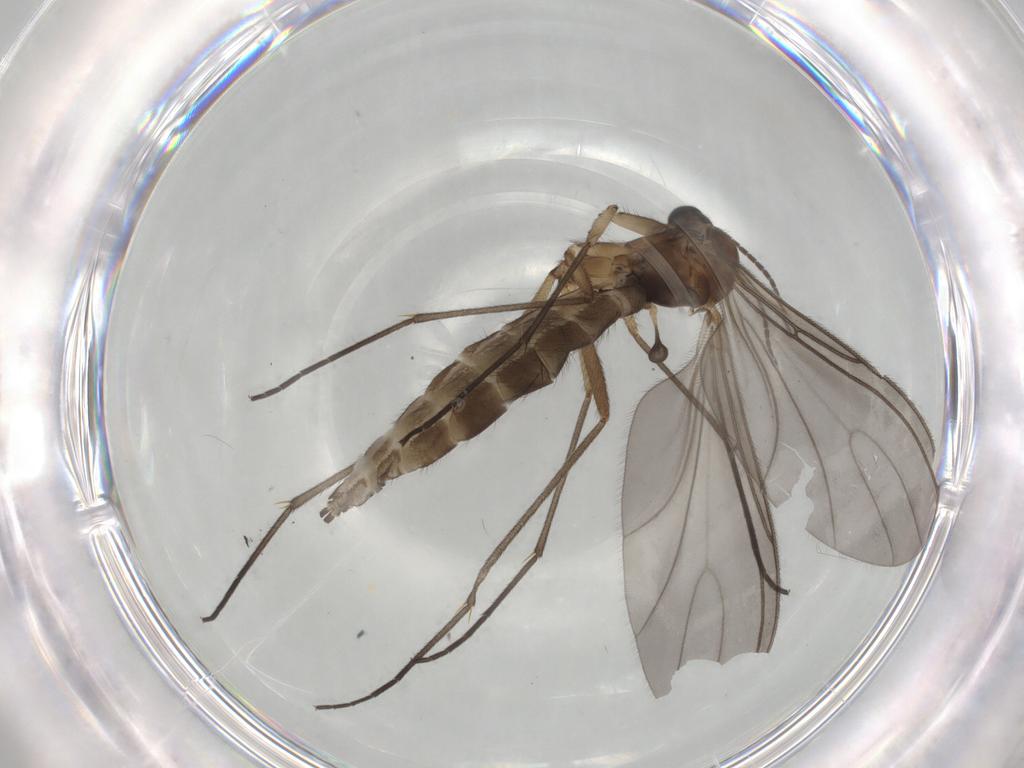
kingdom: Animalia
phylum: Arthropoda
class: Insecta
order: Diptera
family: Sciaridae
